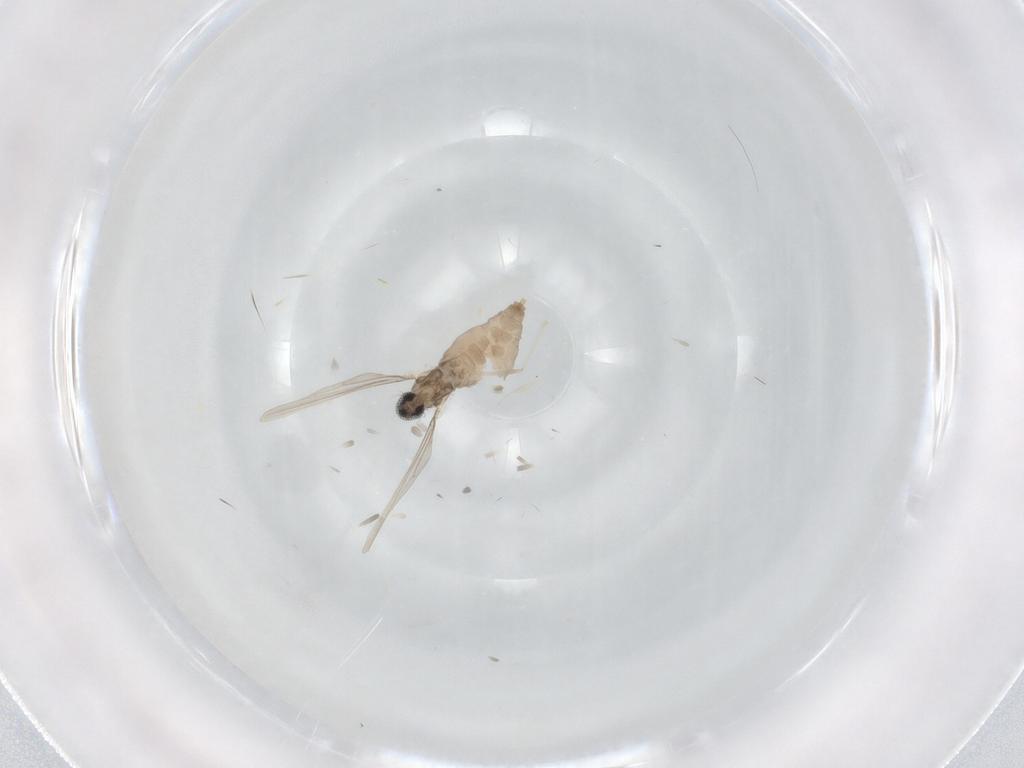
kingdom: Animalia
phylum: Arthropoda
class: Insecta
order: Diptera
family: Cecidomyiidae
